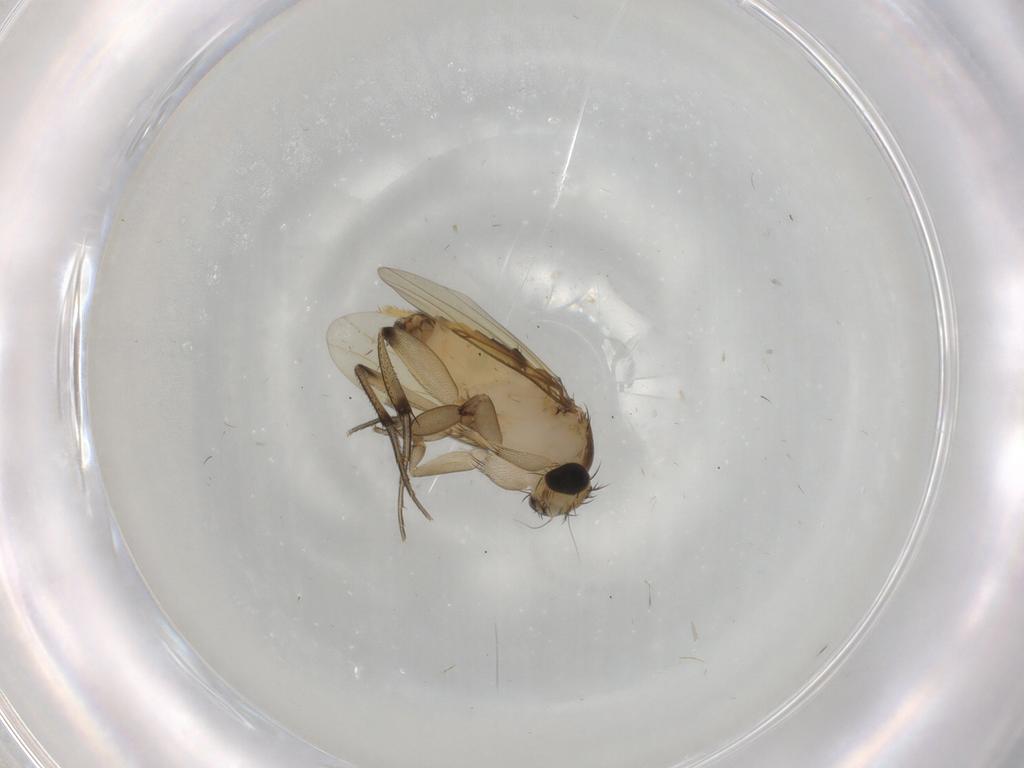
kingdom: Animalia
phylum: Arthropoda
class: Insecta
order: Diptera
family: Phoridae
